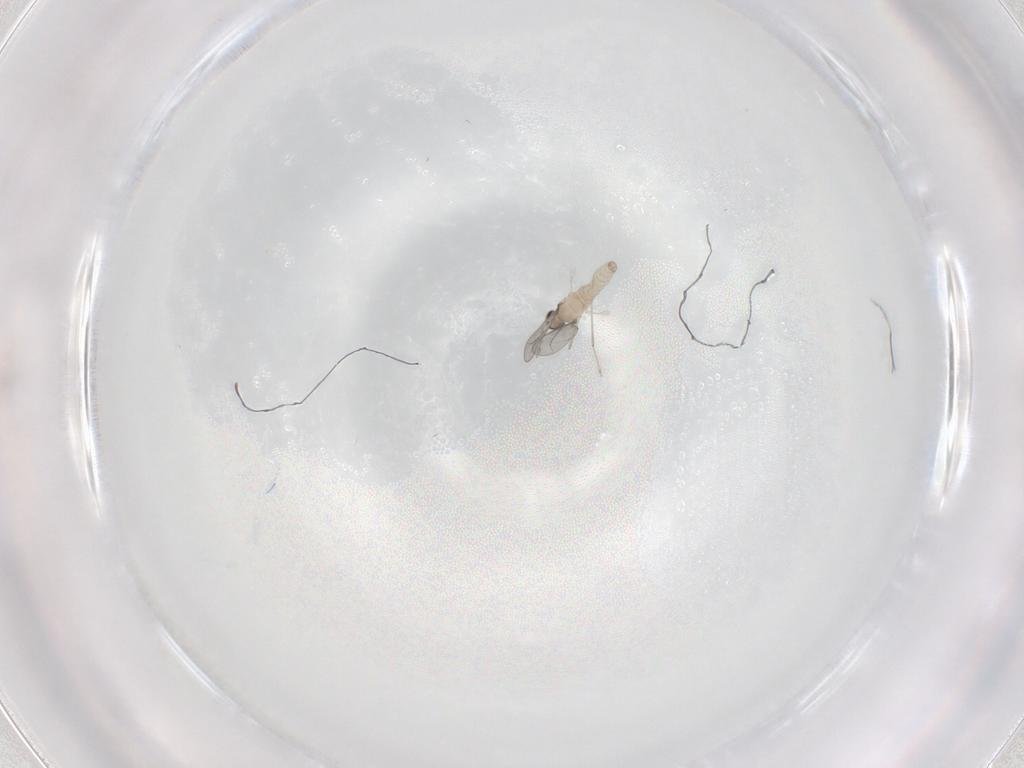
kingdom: Animalia
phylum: Arthropoda
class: Insecta
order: Diptera
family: Cecidomyiidae
